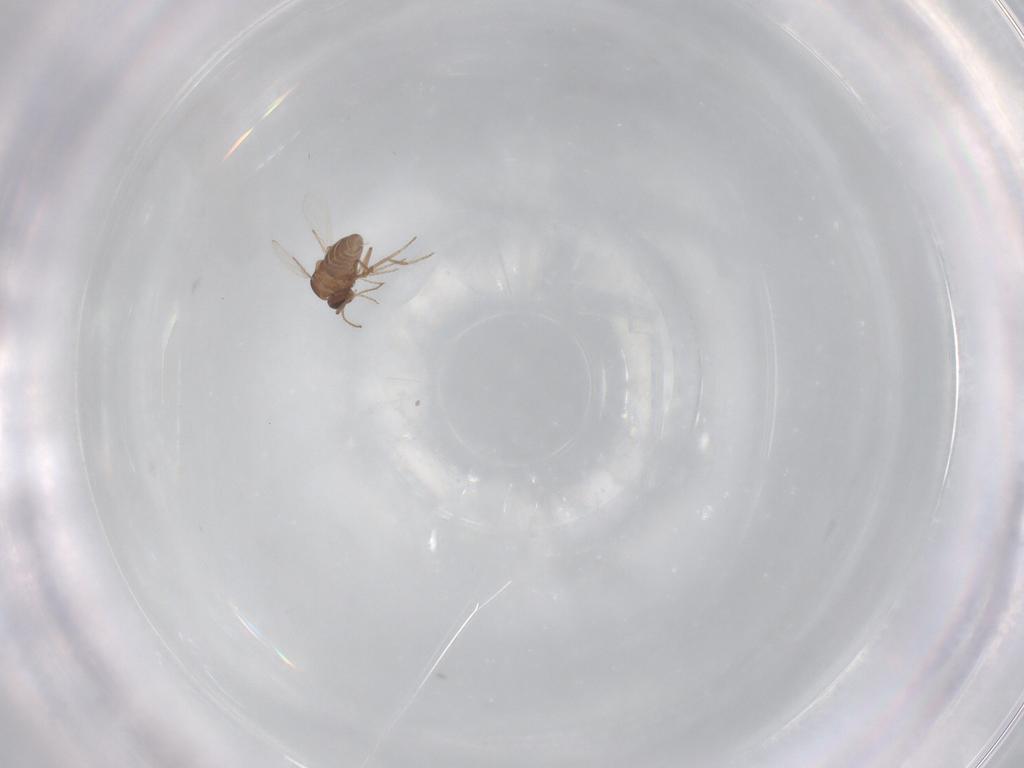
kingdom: Animalia
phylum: Arthropoda
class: Insecta
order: Diptera
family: Ceratopogonidae
